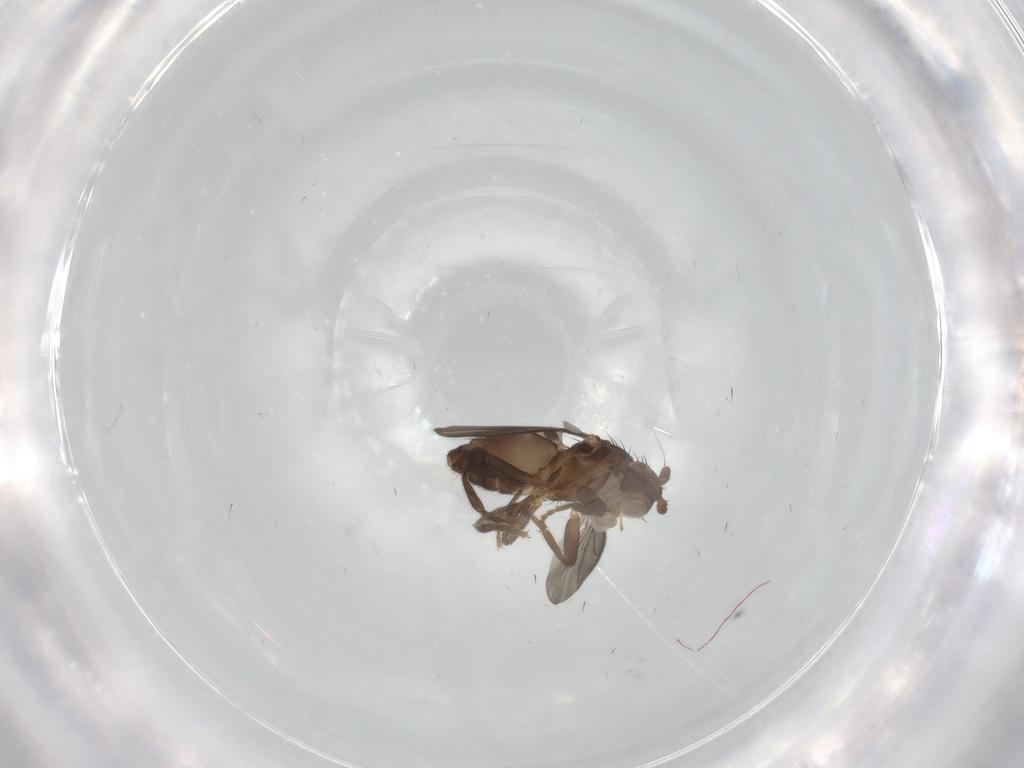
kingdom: Animalia
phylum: Arthropoda
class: Insecta
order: Diptera
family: Sphaeroceridae
